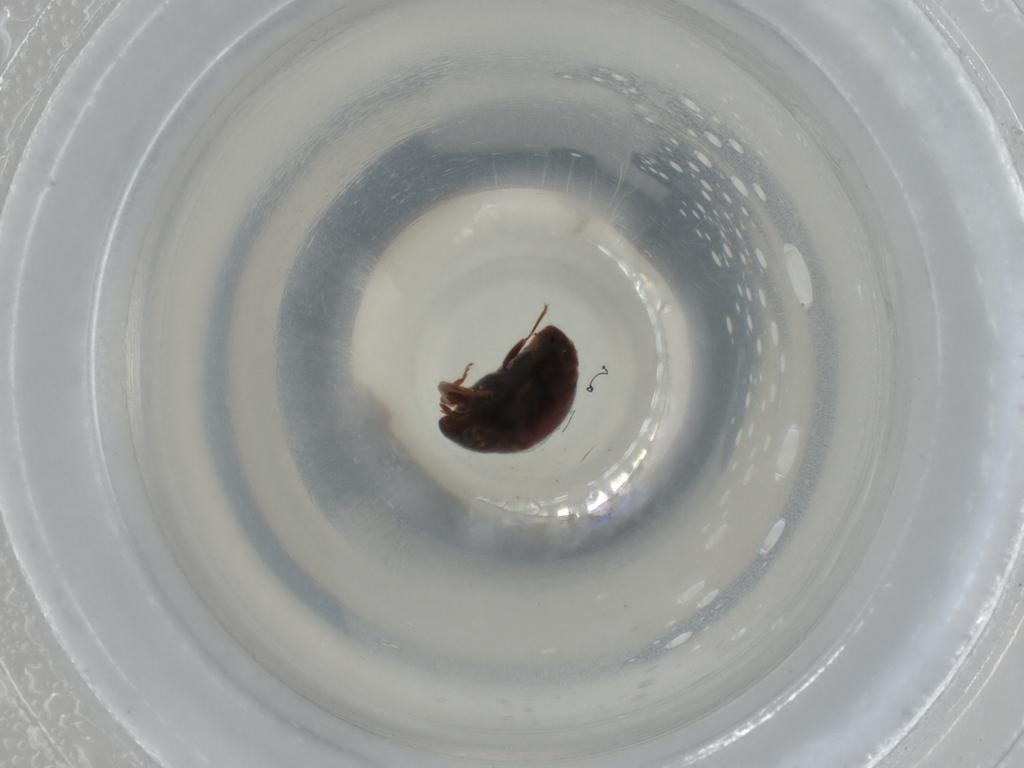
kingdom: Animalia
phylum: Arthropoda
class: Insecta
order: Coleoptera
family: Coccinellidae
